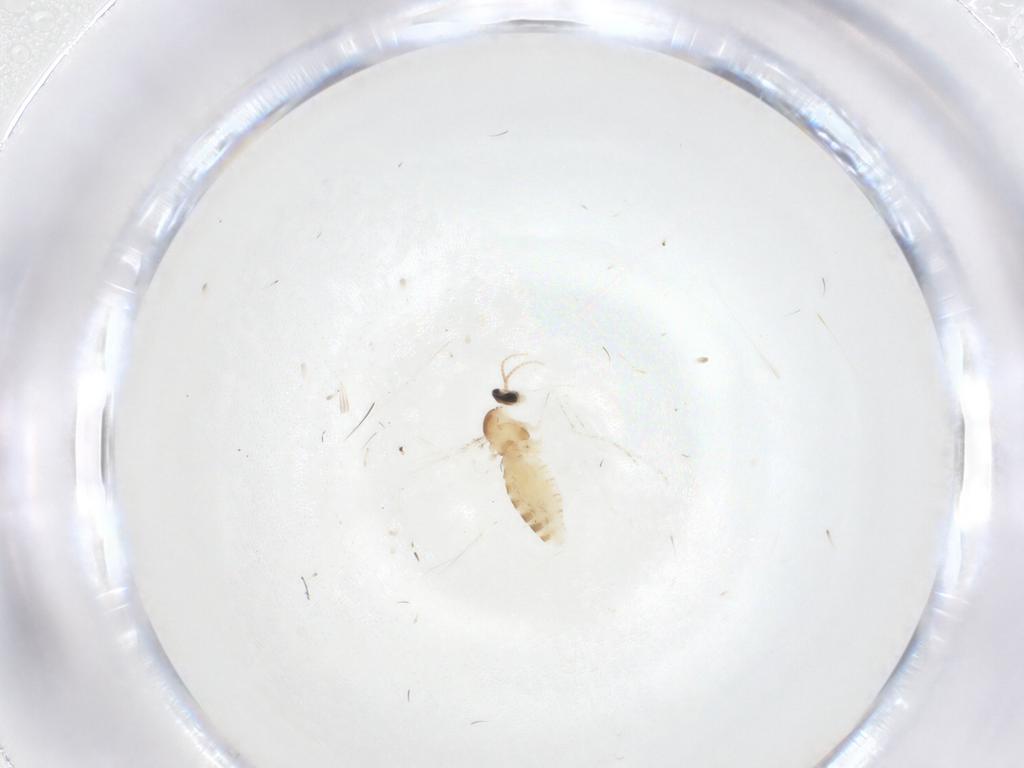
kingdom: Animalia
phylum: Arthropoda
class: Insecta
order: Diptera
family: Cecidomyiidae
